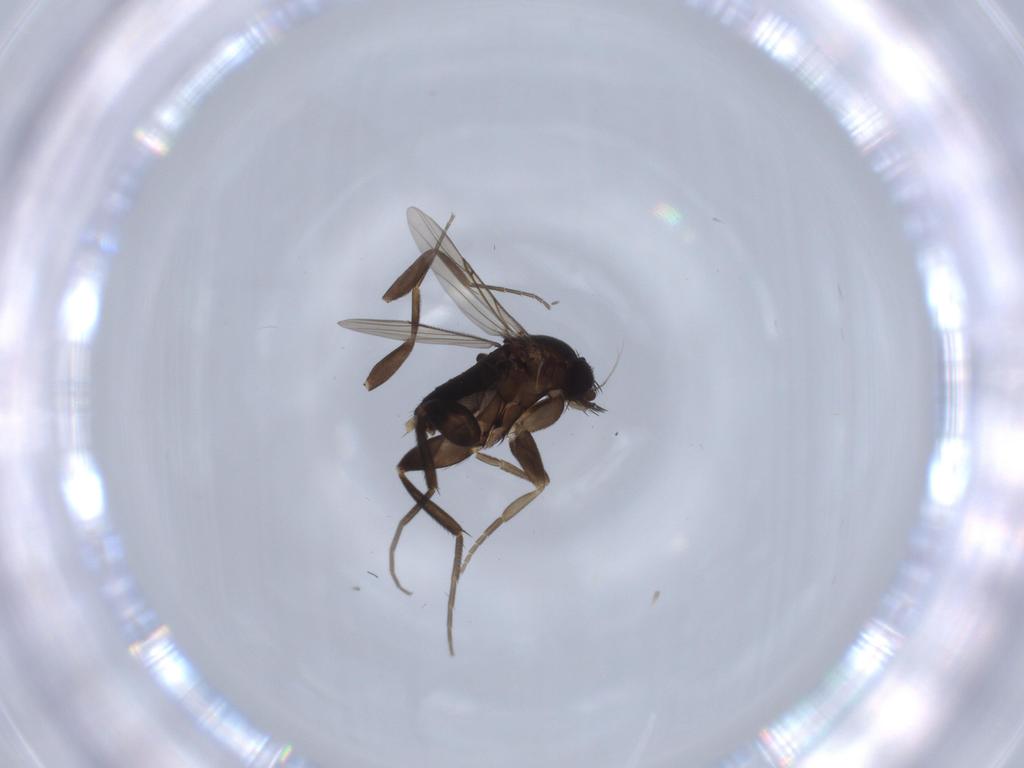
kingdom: Animalia
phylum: Arthropoda
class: Insecta
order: Diptera
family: Phoridae
